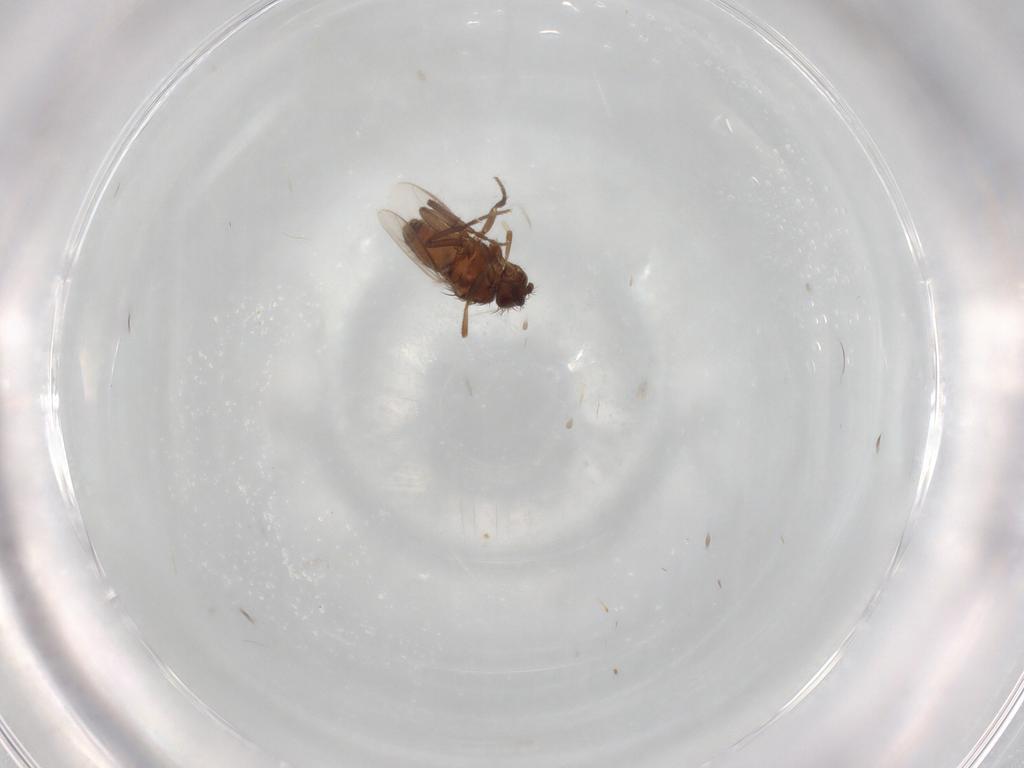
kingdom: Animalia
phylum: Arthropoda
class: Insecta
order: Diptera
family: Sphaeroceridae
